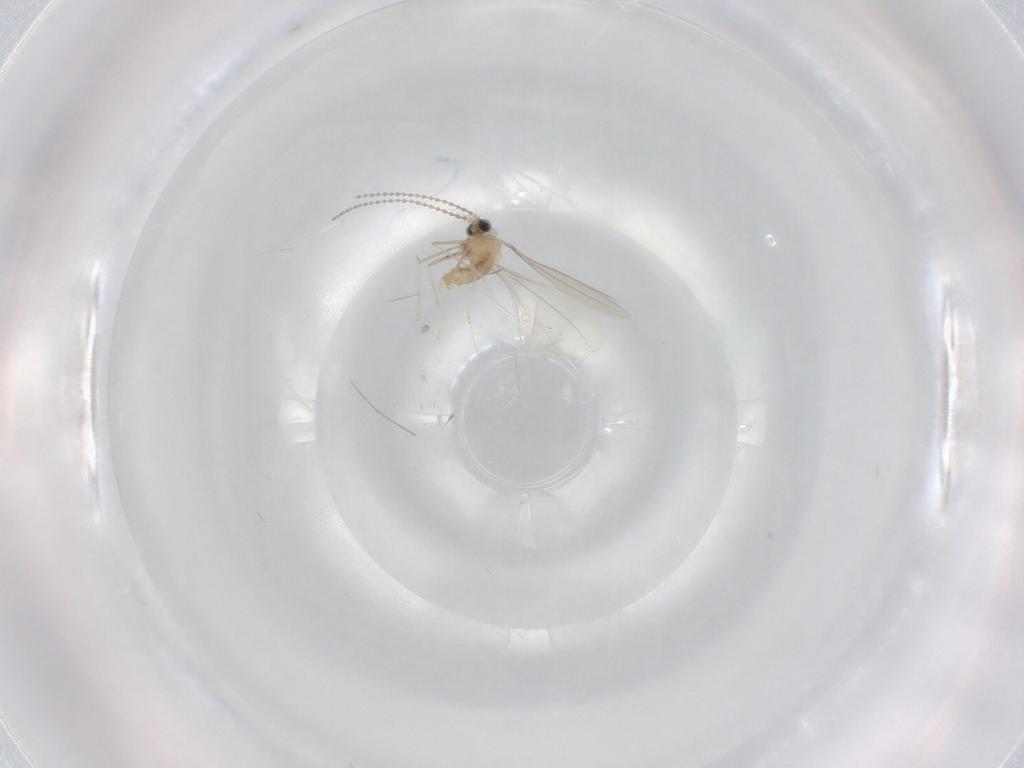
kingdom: Animalia
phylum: Arthropoda
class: Insecta
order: Diptera
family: Cecidomyiidae
